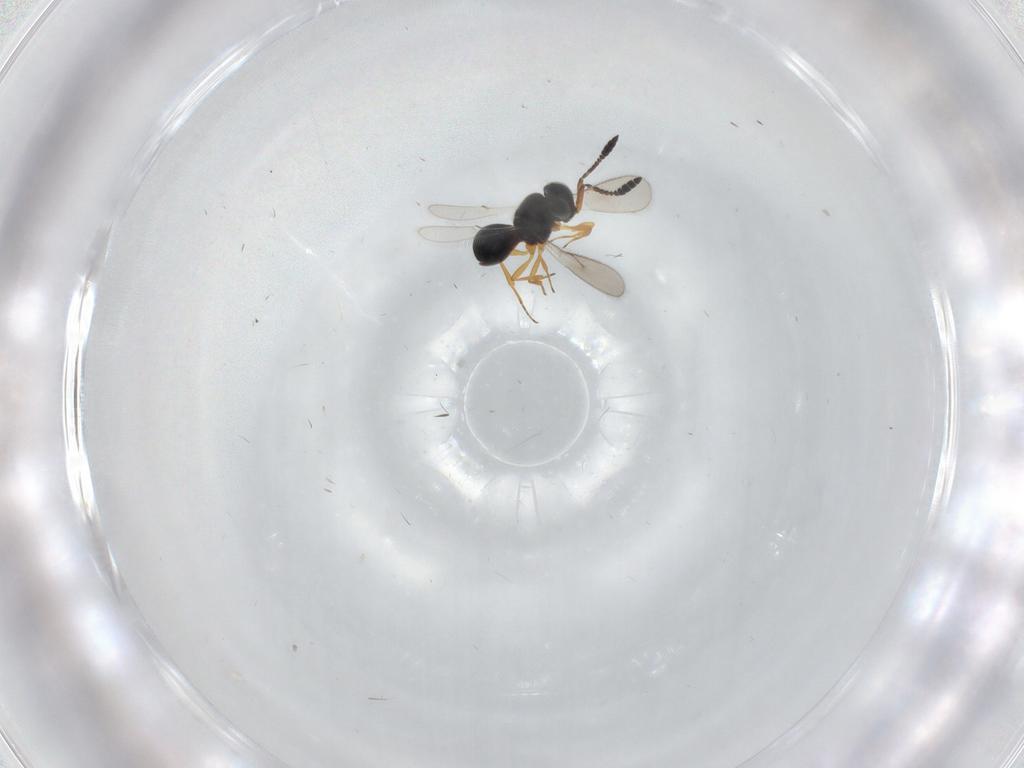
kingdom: Animalia
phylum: Arthropoda
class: Insecta
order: Hymenoptera
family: Scelionidae
